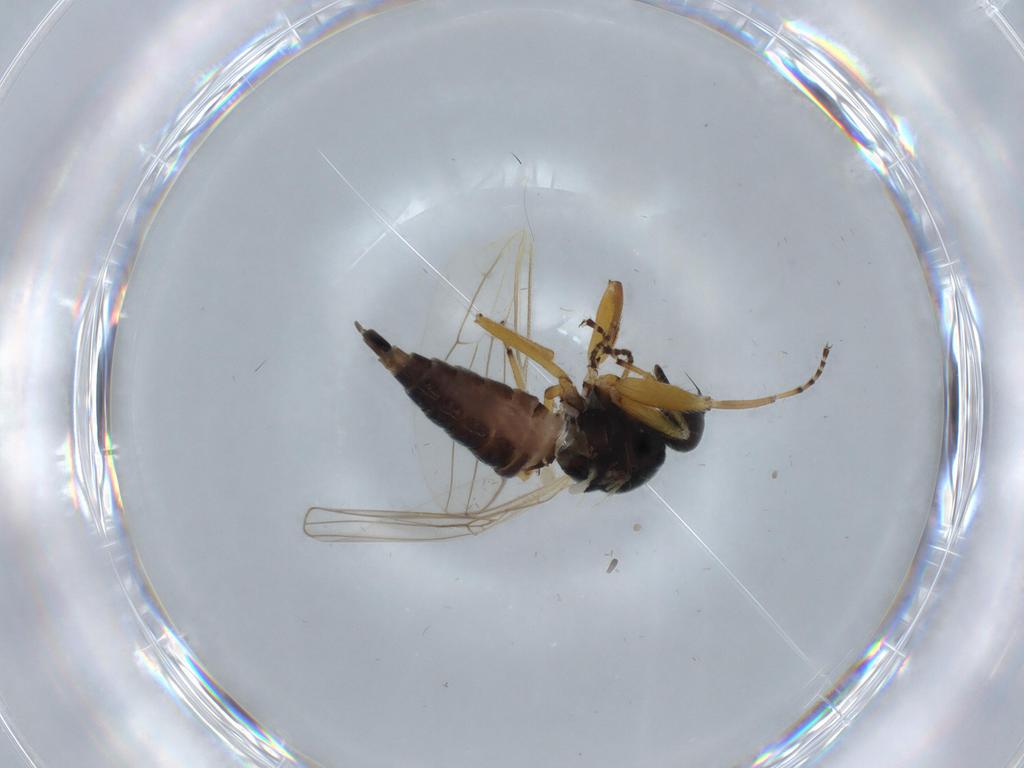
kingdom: Animalia
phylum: Arthropoda
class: Insecta
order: Diptera
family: Hybotidae
